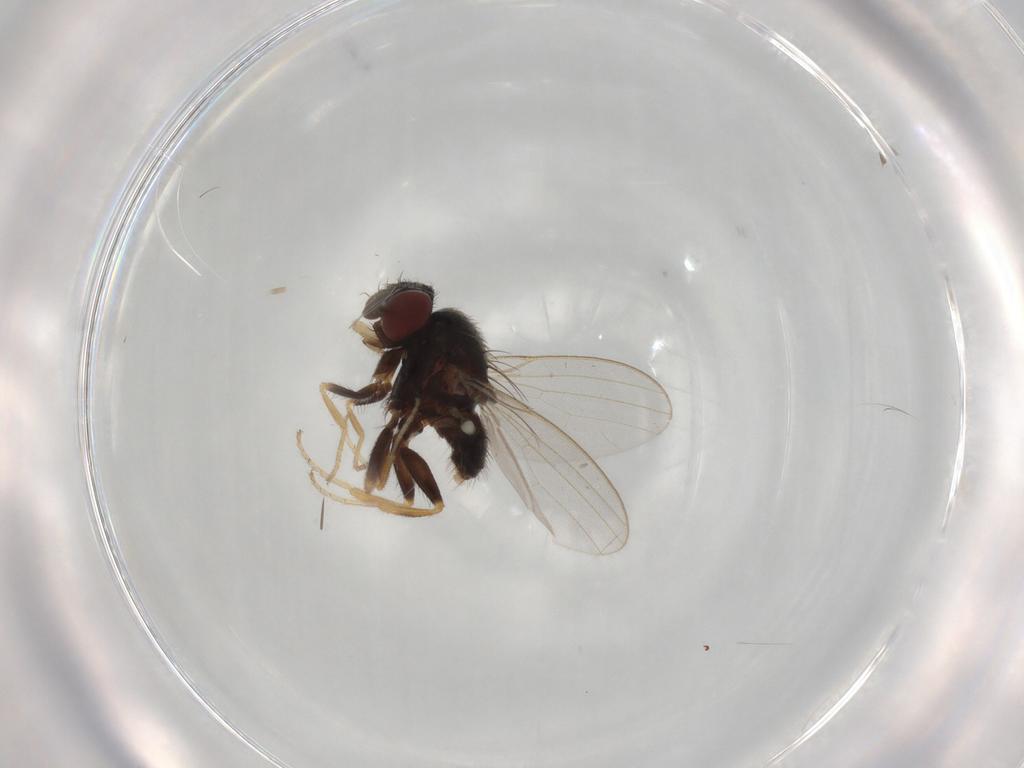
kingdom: Animalia
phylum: Arthropoda
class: Insecta
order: Diptera
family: Milichiidae
